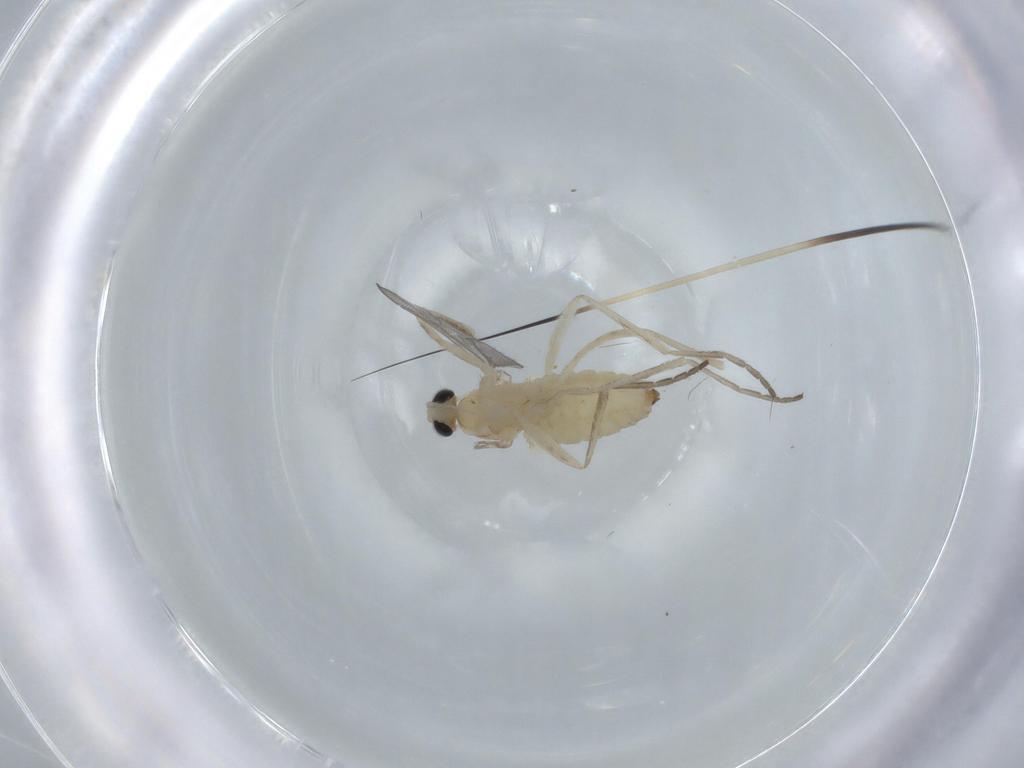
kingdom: Animalia
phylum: Arthropoda
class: Insecta
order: Diptera
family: Cecidomyiidae
